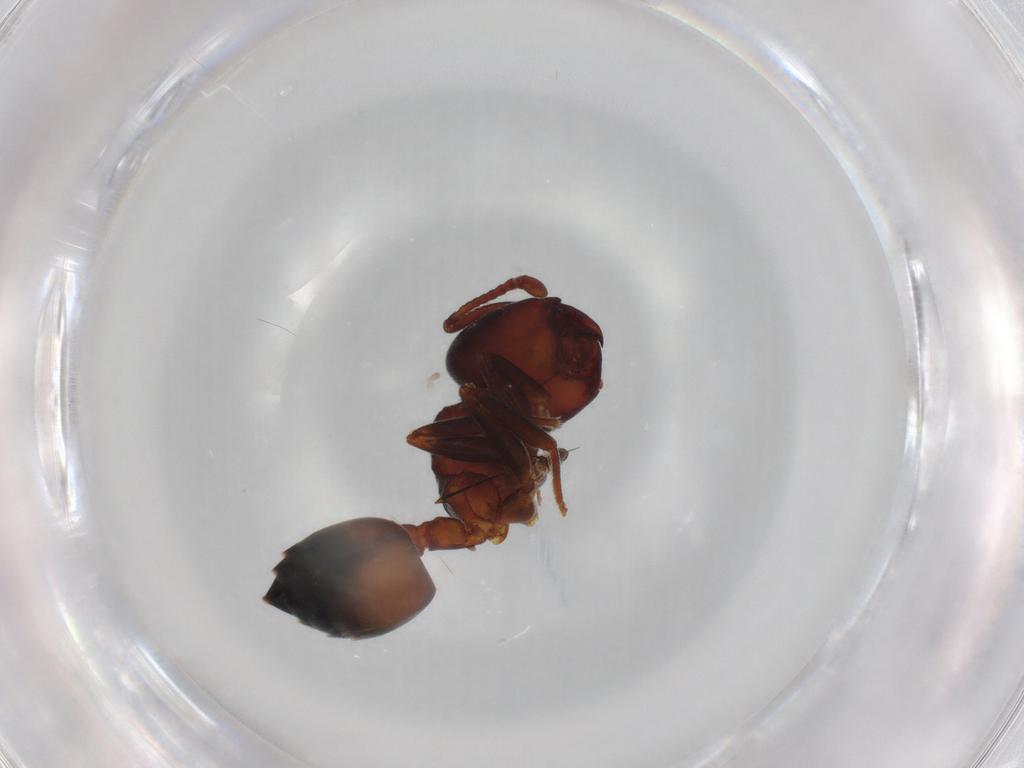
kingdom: Animalia
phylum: Arthropoda
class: Insecta
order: Hymenoptera
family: Formicidae
